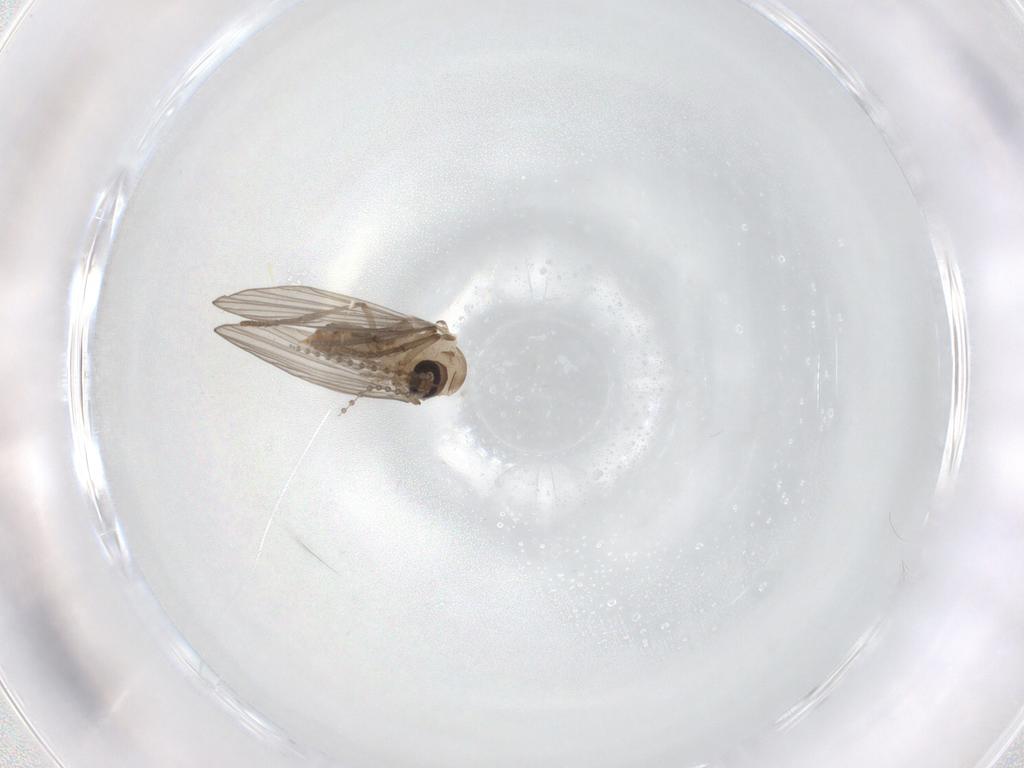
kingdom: Animalia
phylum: Arthropoda
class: Insecta
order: Diptera
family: Psychodidae
